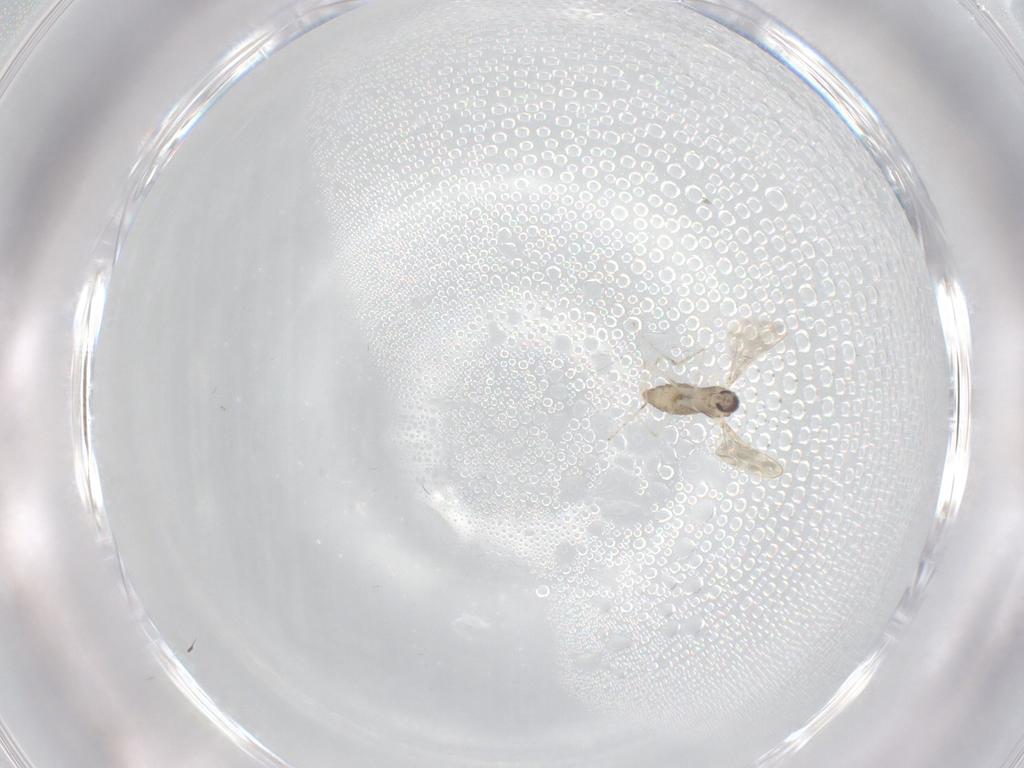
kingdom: Animalia
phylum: Arthropoda
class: Insecta
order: Diptera
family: Cecidomyiidae
